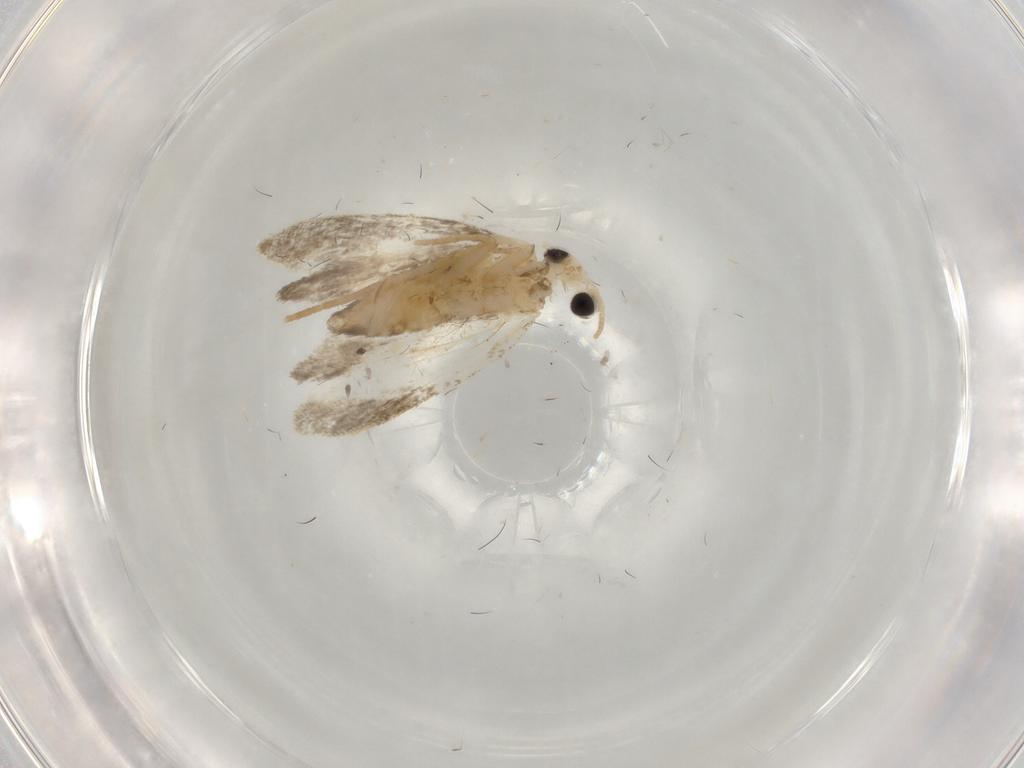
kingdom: Animalia
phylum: Arthropoda
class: Insecta
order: Lepidoptera
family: Psychidae
